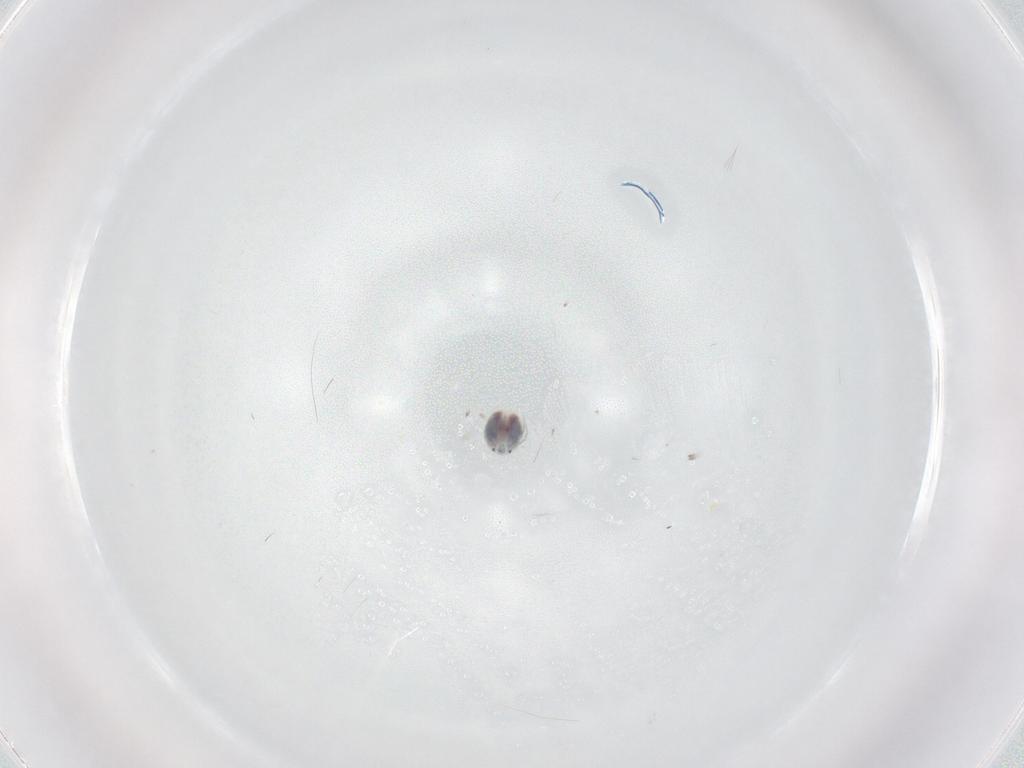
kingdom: Animalia
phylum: Arthropoda
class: Arachnida
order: Trombidiformes
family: Unionicolidae
